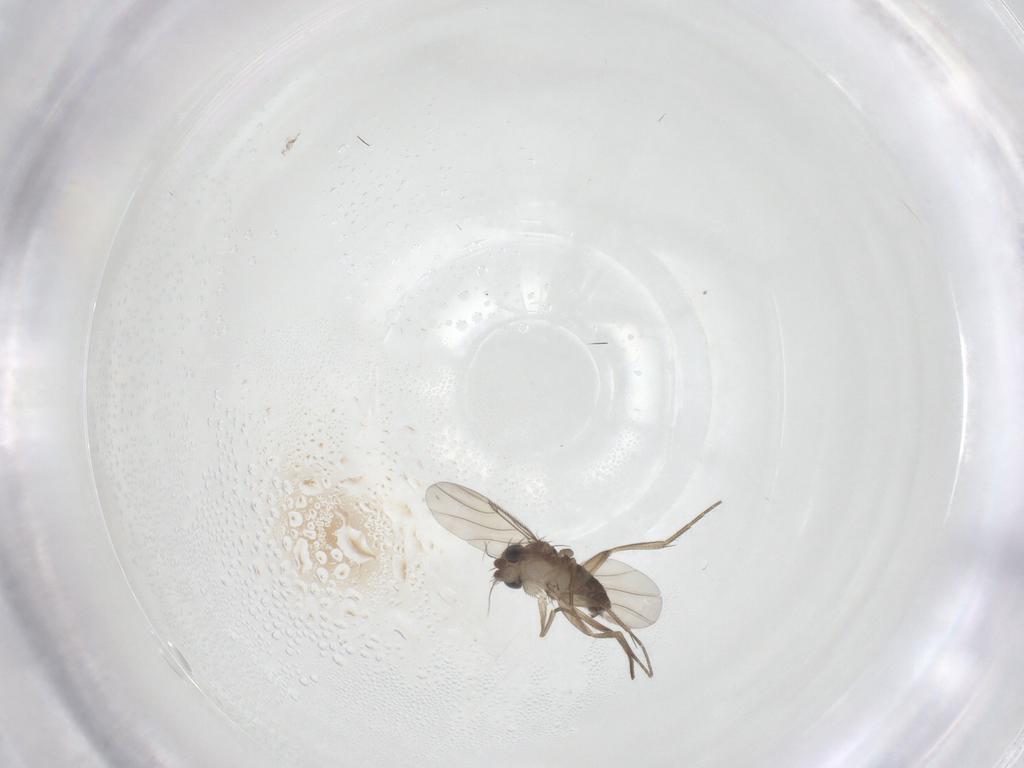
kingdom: Animalia
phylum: Arthropoda
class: Insecta
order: Diptera
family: Phoridae
